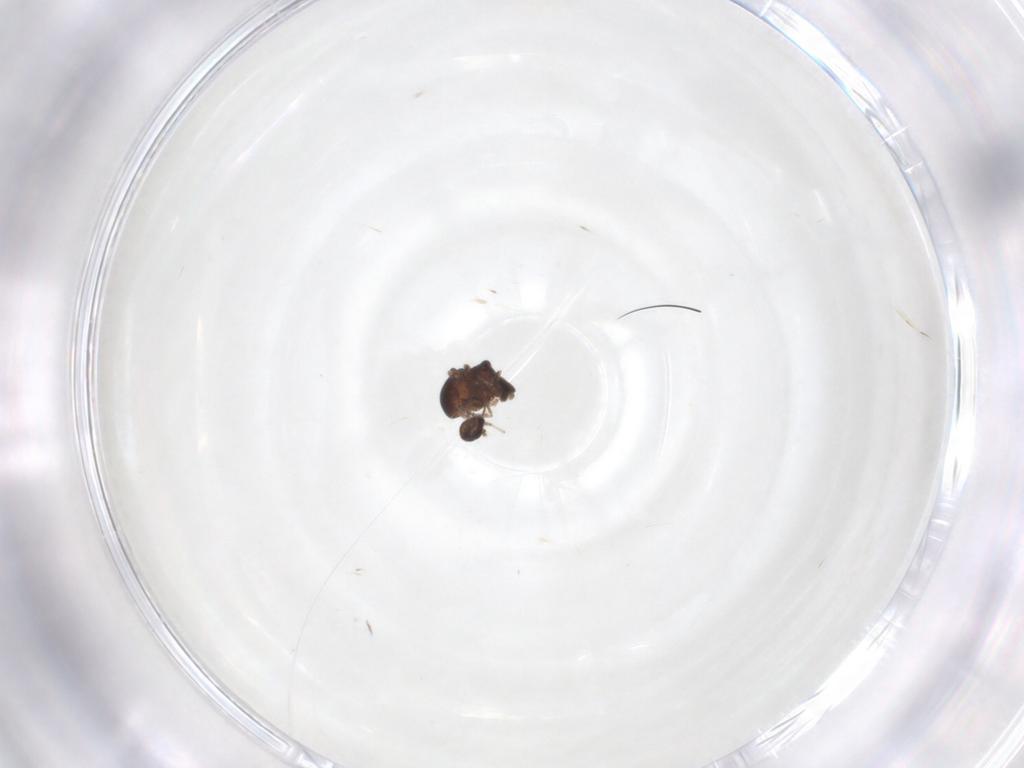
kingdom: Animalia
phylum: Arthropoda
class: Insecta
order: Diptera
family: Ceratopogonidae
